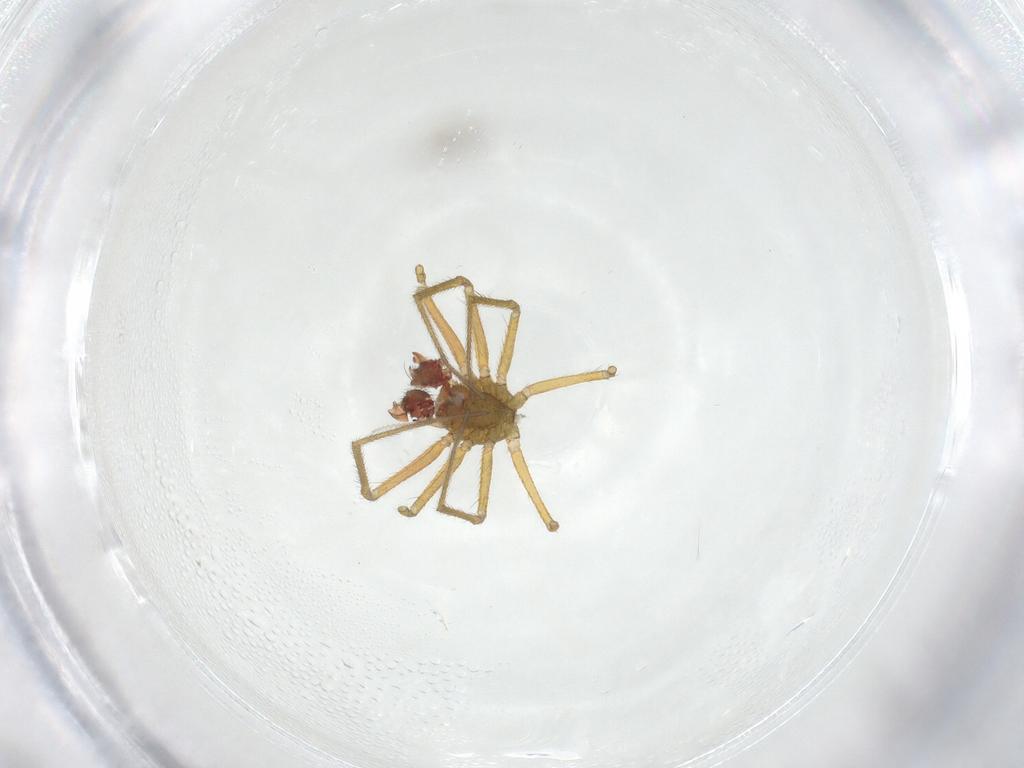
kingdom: Animalia
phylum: Arthropoda
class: Arachnida
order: Araneae
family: Linyphiidae
